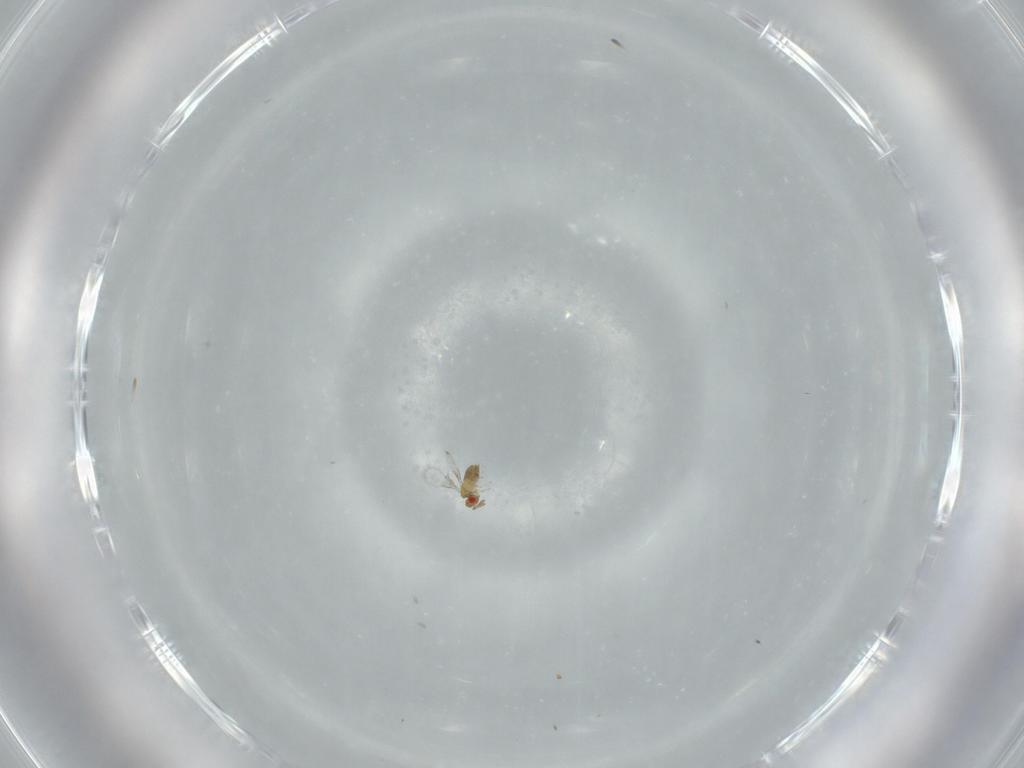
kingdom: Animalia
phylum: Arthropoda
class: Insecta
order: Hymenoptera
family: Trichogrammatidae
